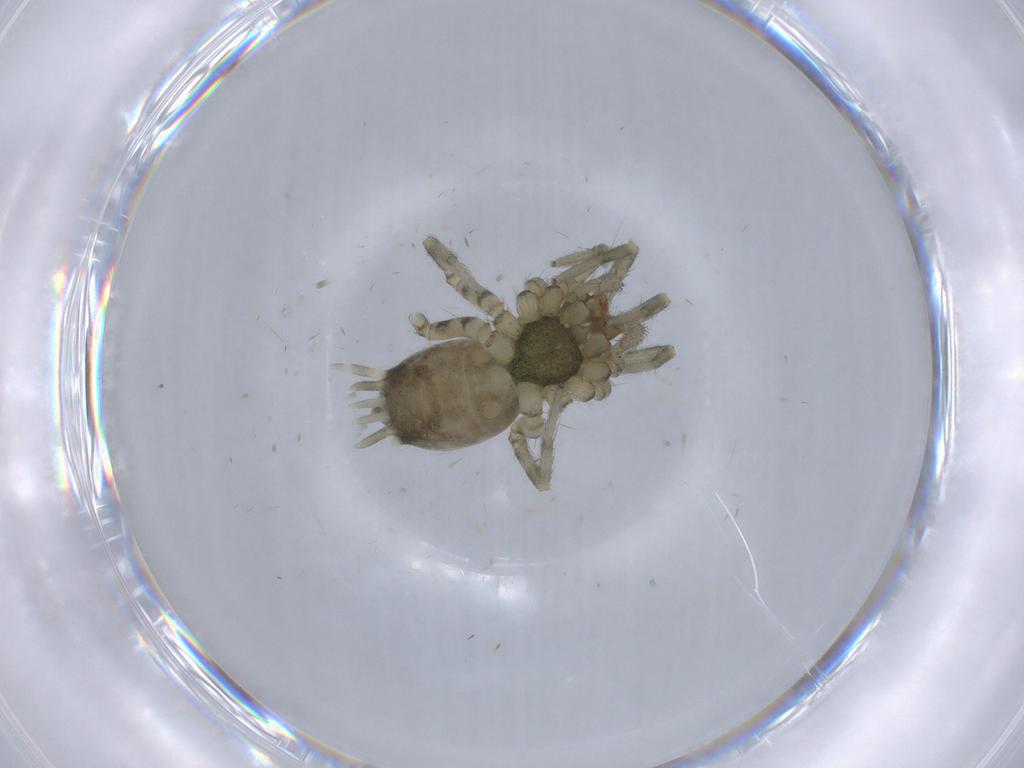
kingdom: Animalia
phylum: Arthropoda
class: Arachnida
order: Araneae
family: Hahniidae
